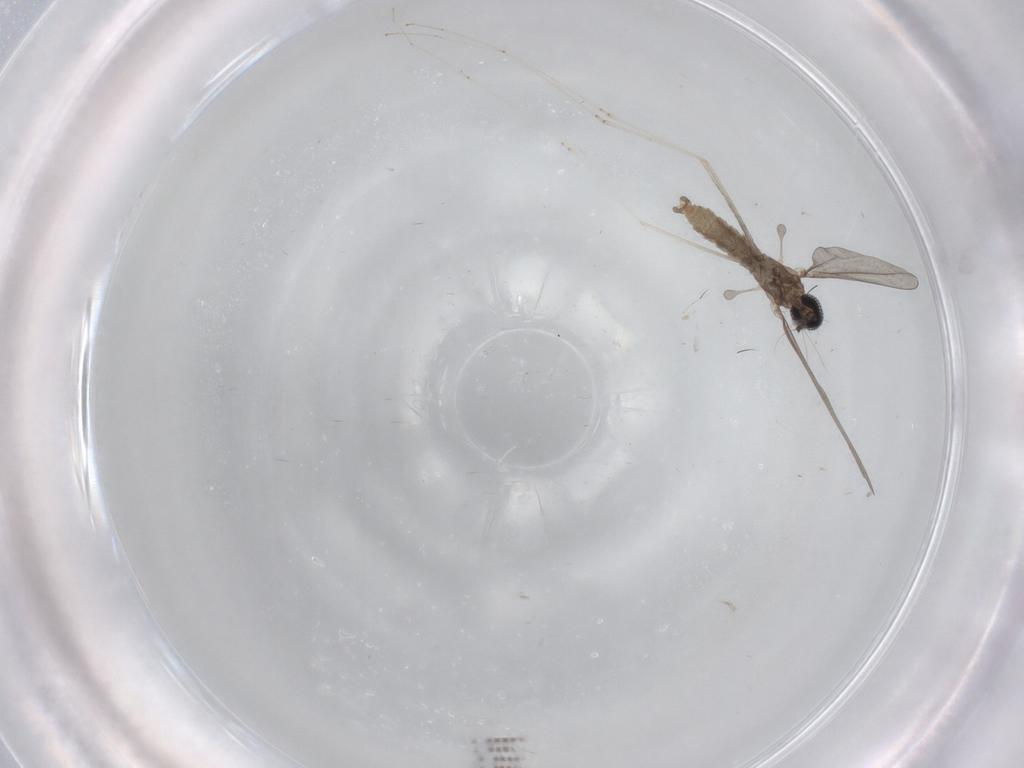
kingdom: Animalia
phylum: Arthropoda
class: Insecta
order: Diptera
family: Cecidomyiidae
